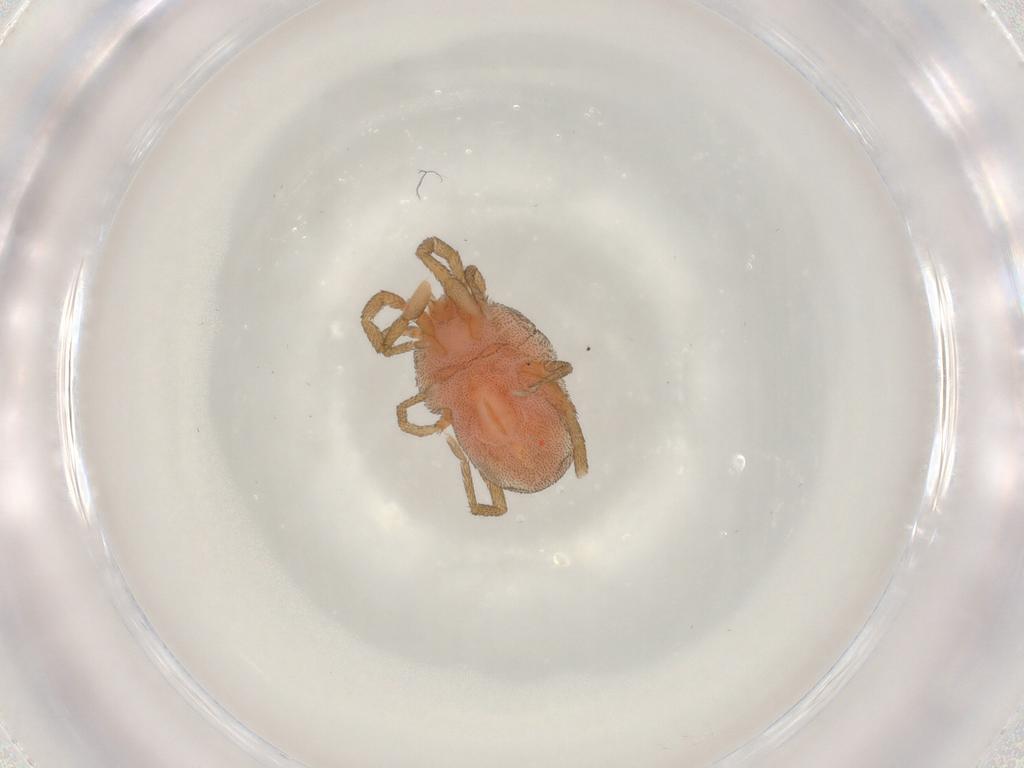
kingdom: Animalia
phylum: Arthropoda
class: Arachnida
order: Trombidiformes
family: Erythraeidae
